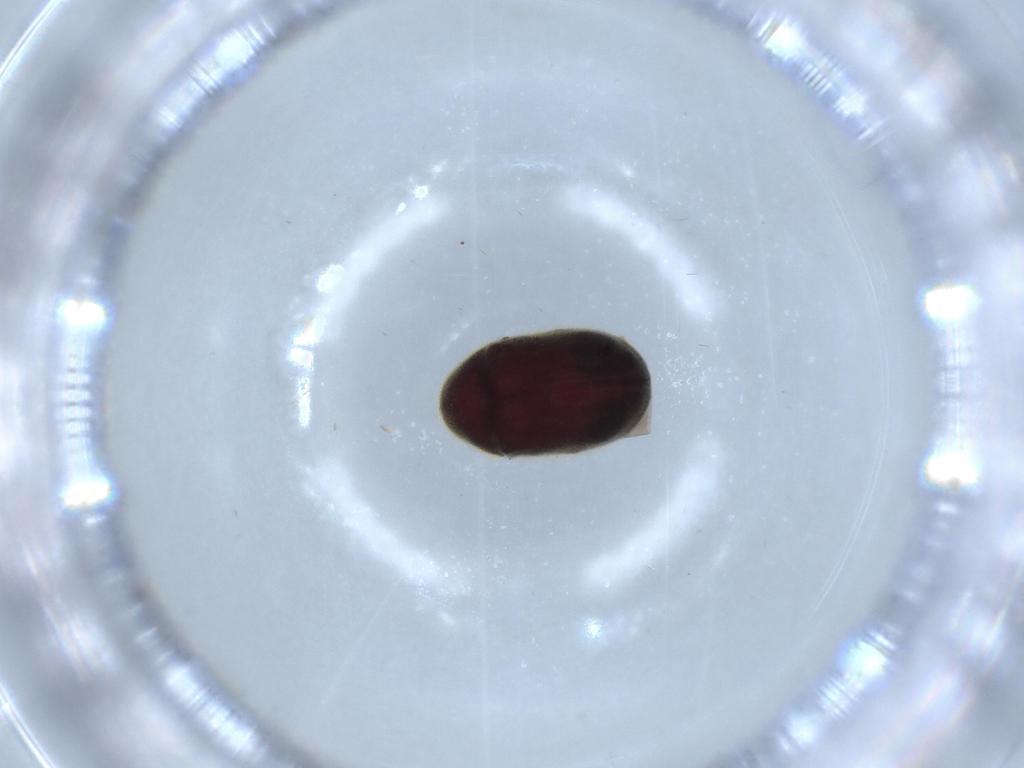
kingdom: Animalia
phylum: Arthropoda
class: Insecta
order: Coleoptera
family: Ptinidae
